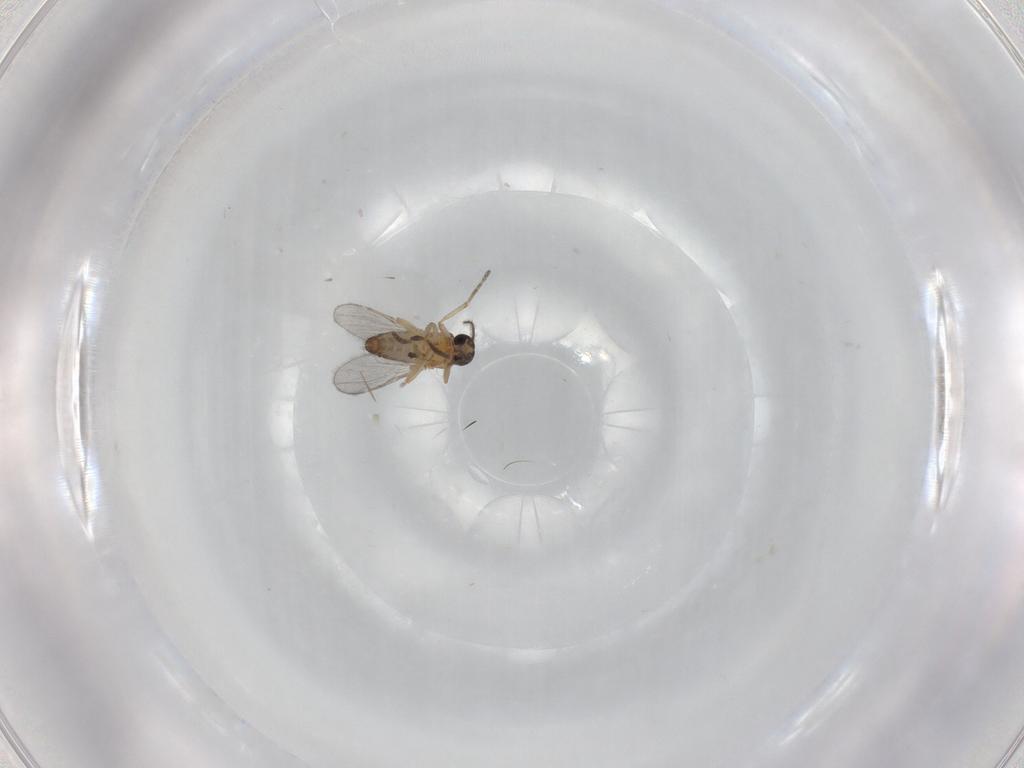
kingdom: Animalia
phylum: Arthropoda
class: Insecta
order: Diptera
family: Ceratopogonidae
